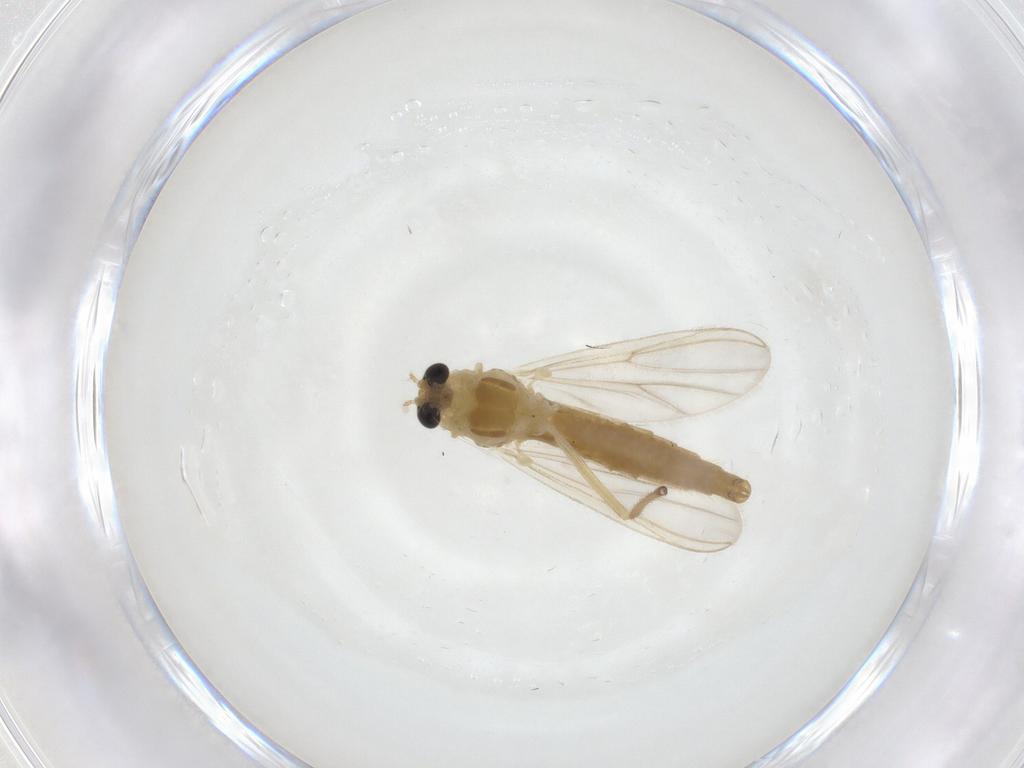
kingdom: Animalia
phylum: Arthropoda
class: Insecta
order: Diptera
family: Chironomidae
